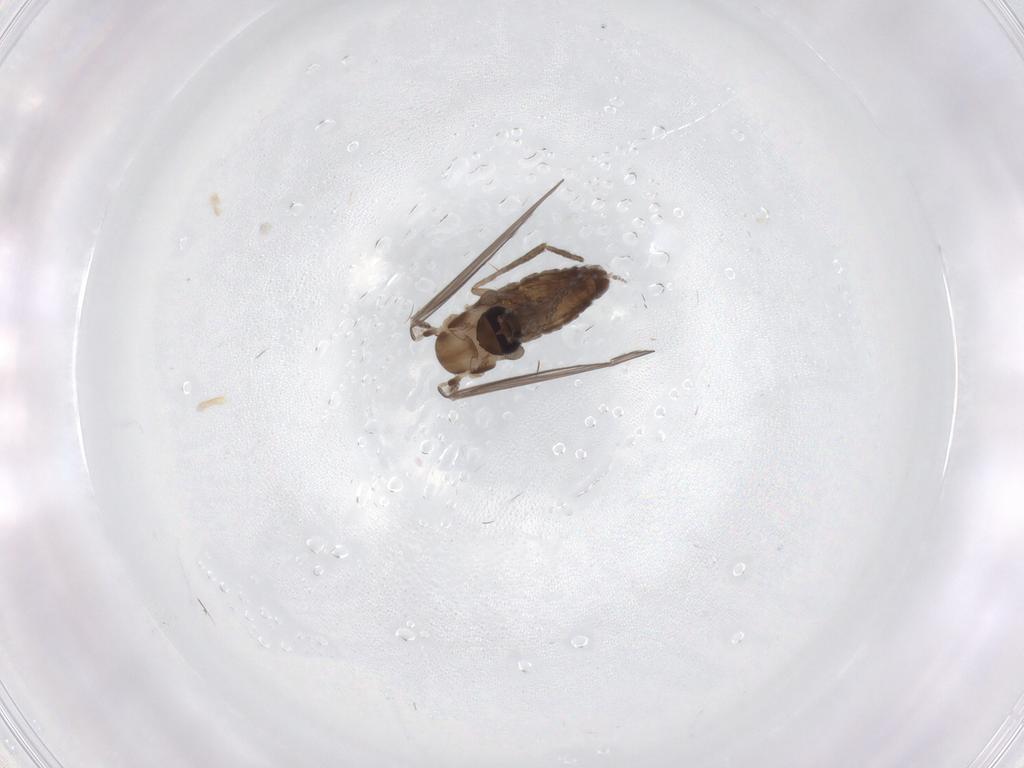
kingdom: Animalia
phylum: Arthropoda
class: Insecta
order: Diptera
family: Psychodidae
